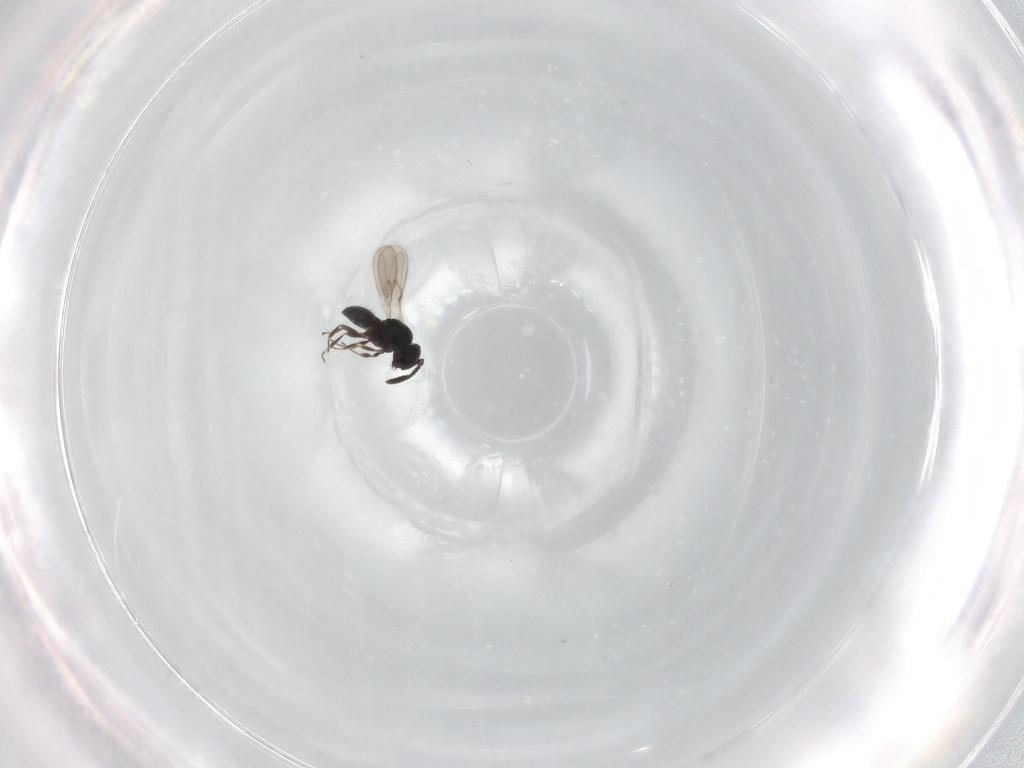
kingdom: Animalia
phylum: Arthropoda
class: Insecta
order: Hymenoptera
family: Scelionidae
